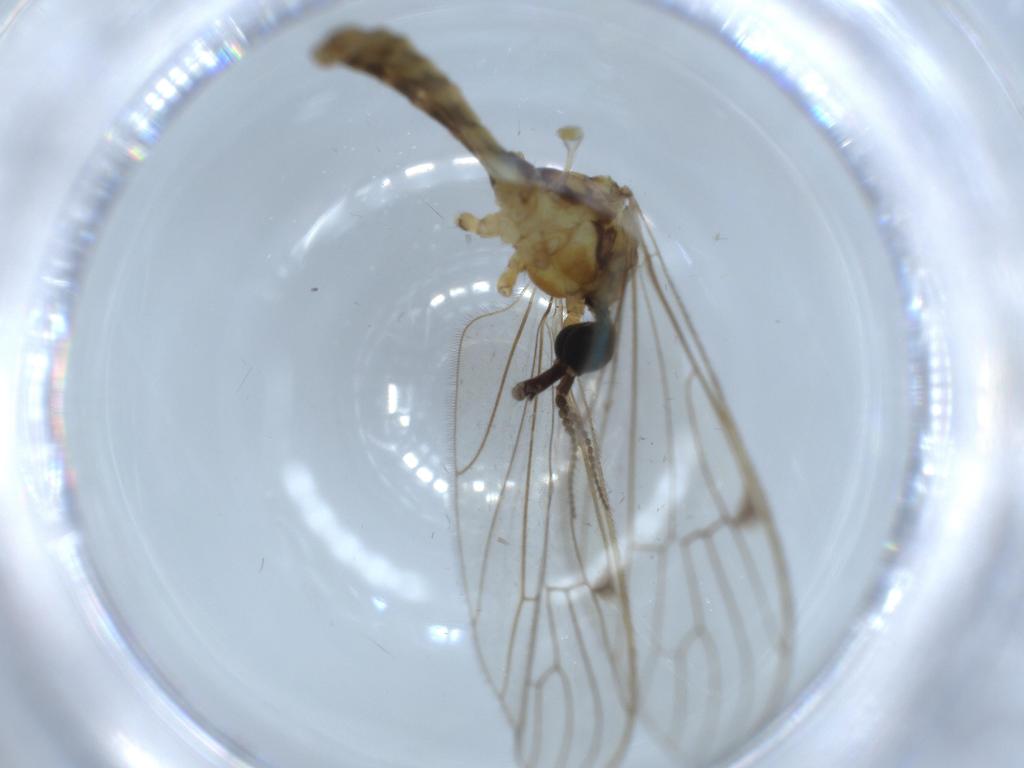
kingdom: Animalia
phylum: Arthropoda
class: Insecta
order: Diptera
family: Limoniidae
